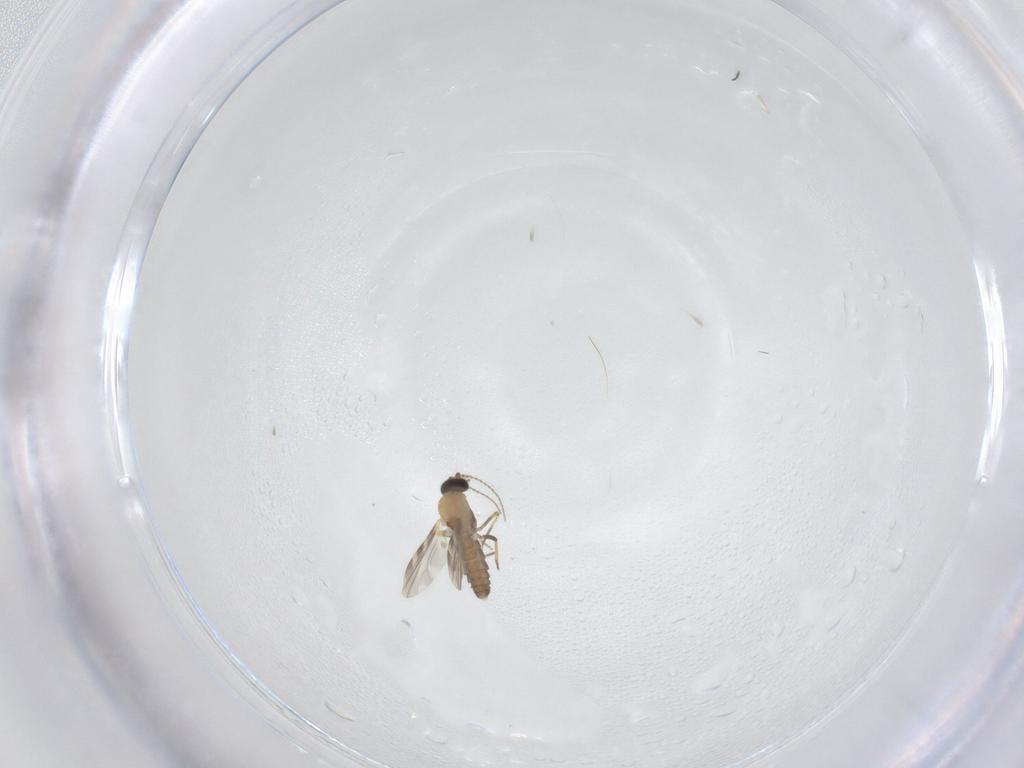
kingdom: Animalia
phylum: Arthropoda
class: Insecta
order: Diptera
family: Ceratopogonidae
